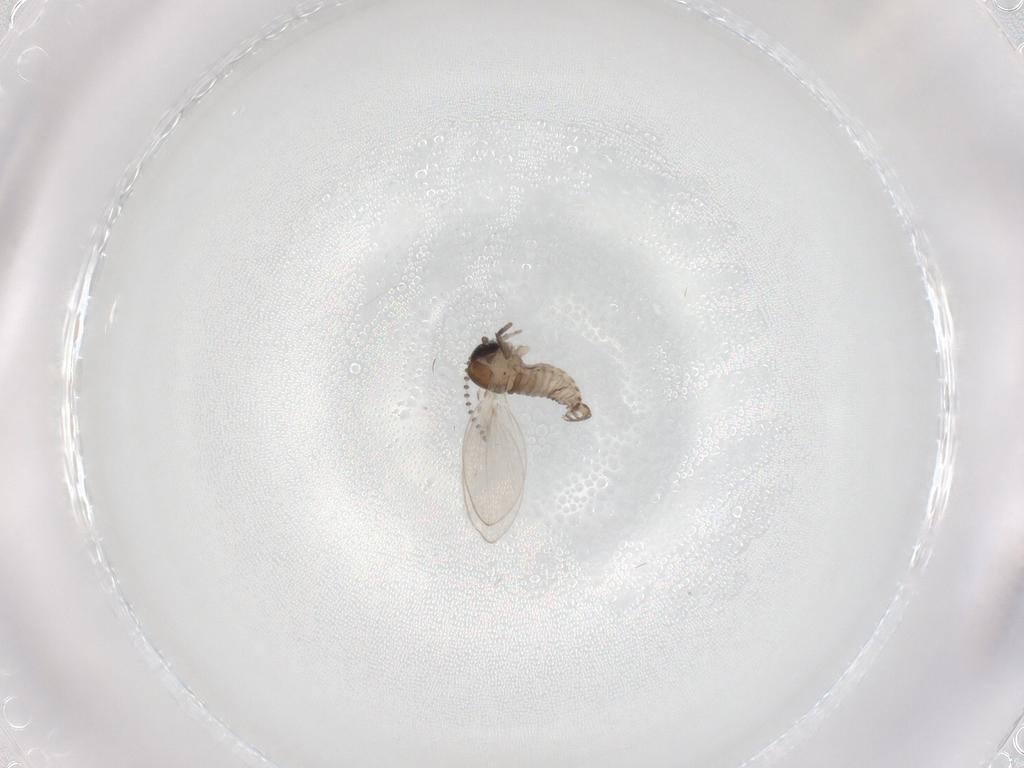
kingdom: Animalia
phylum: Arthropoda
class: Insecta
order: Diptera
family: Psychodidae
